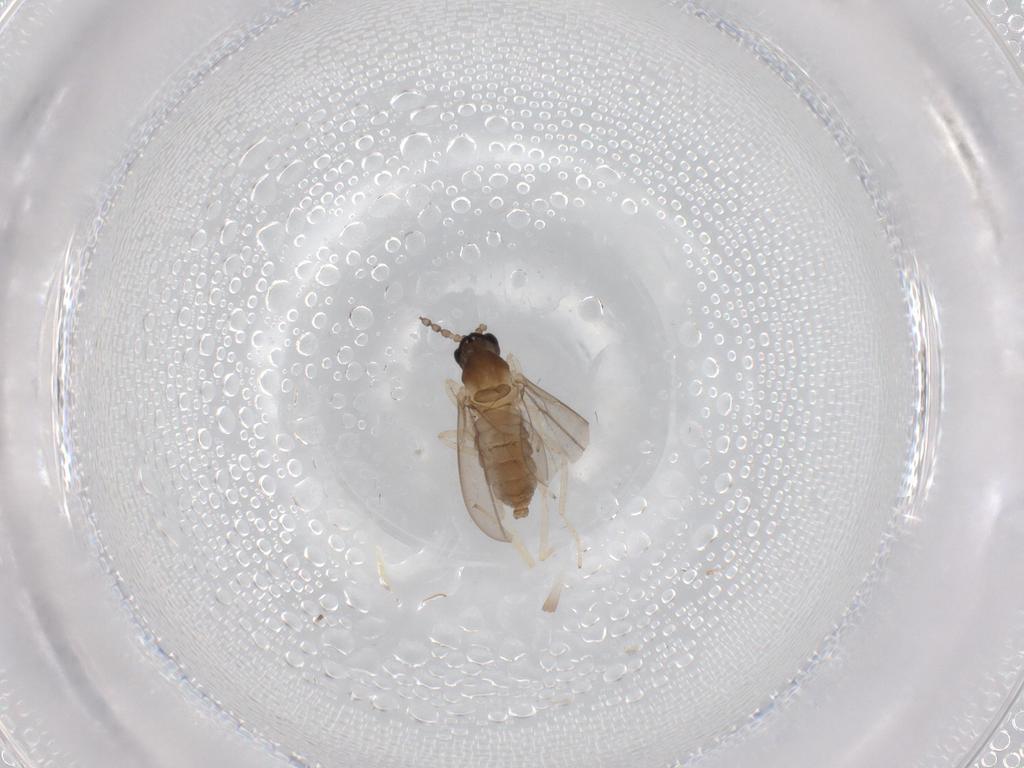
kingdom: Animalia
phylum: Arthropoda
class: Insecta
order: Diptera
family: Cecidomyiidae
